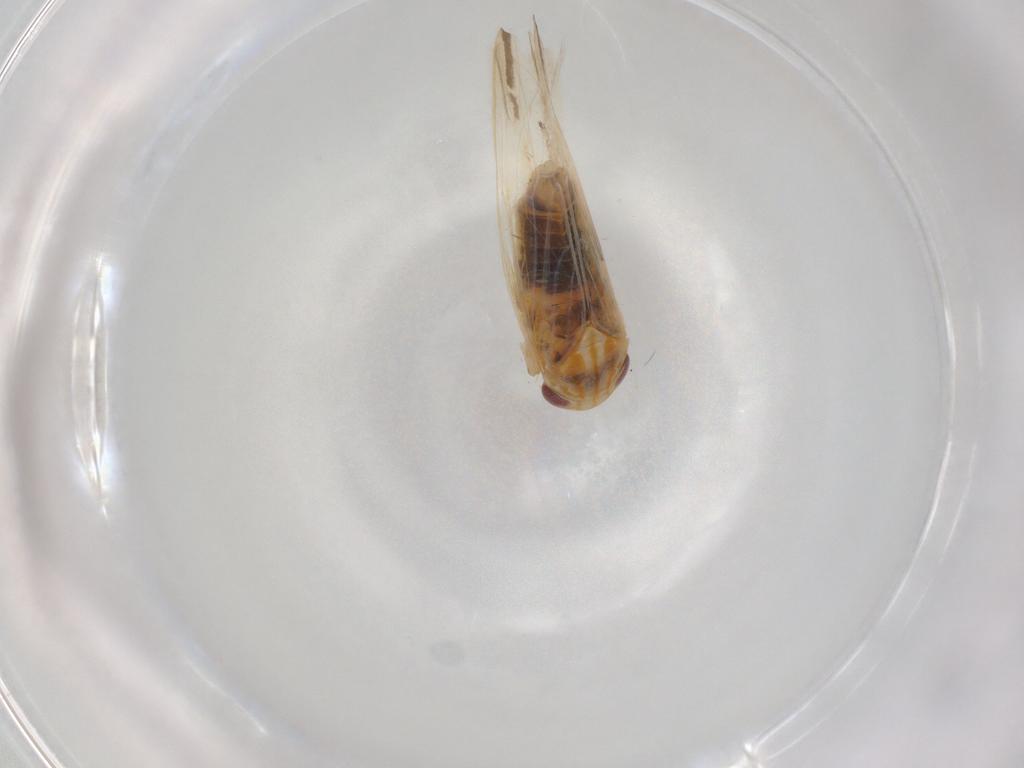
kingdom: Animalia
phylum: Arthropoda
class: Insecta
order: Hemiptera
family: Cicadellidae
